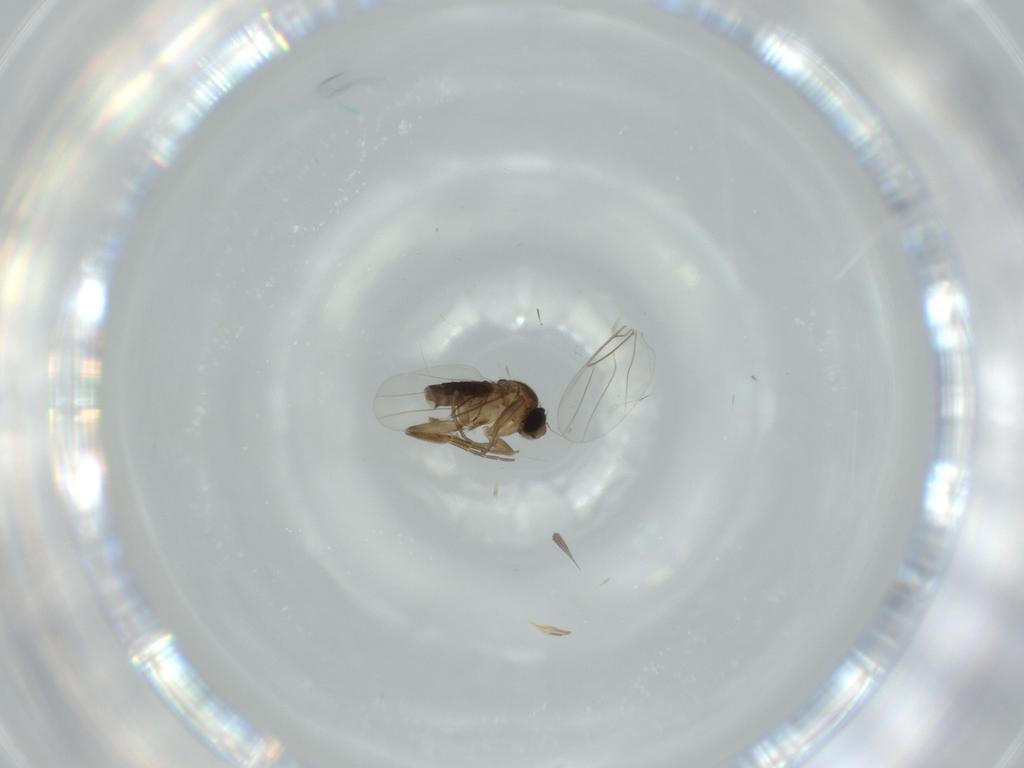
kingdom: Animalia
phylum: Arthropoda
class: Insecta
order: Diptera
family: Phoridae
